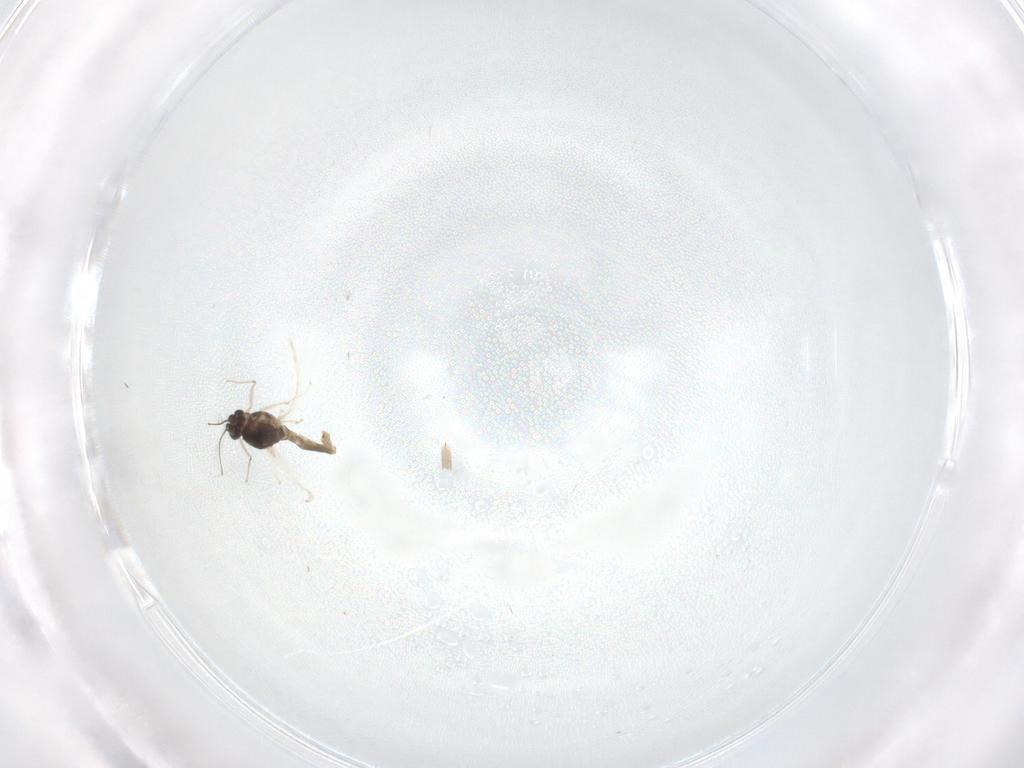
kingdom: Animalia
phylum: Arthropoda
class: Insecta
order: Diptera
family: Chironomidae
